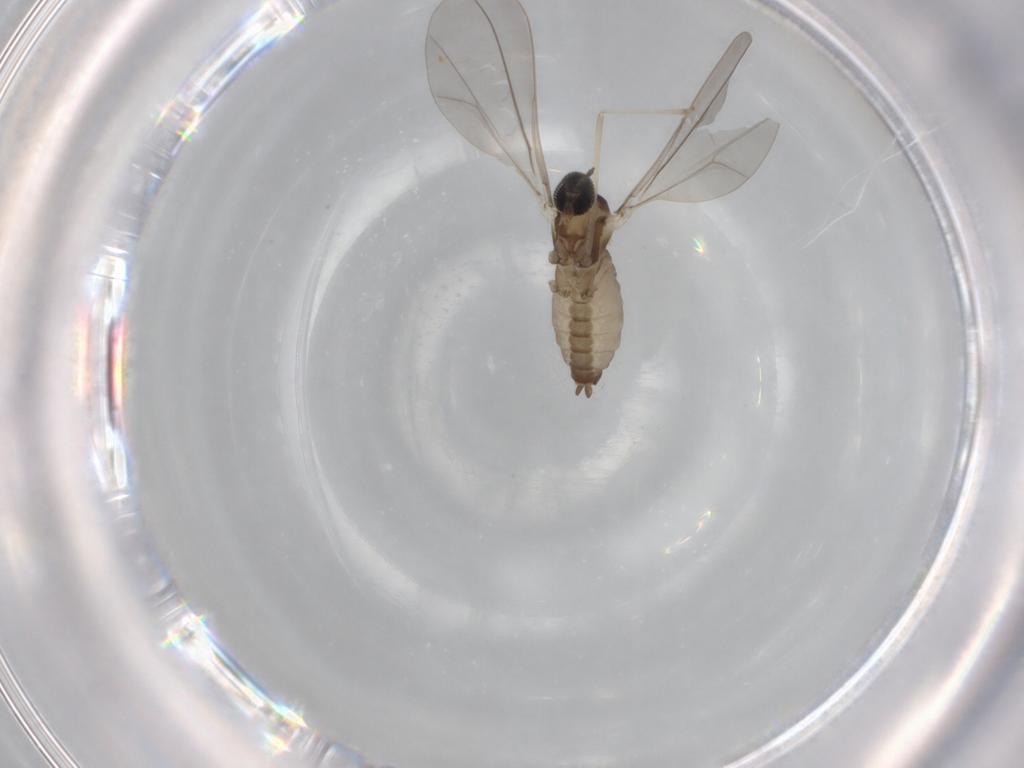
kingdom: Animalia
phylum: Arthropoda
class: Insecta
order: Diptera
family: Cecidomyiidae
